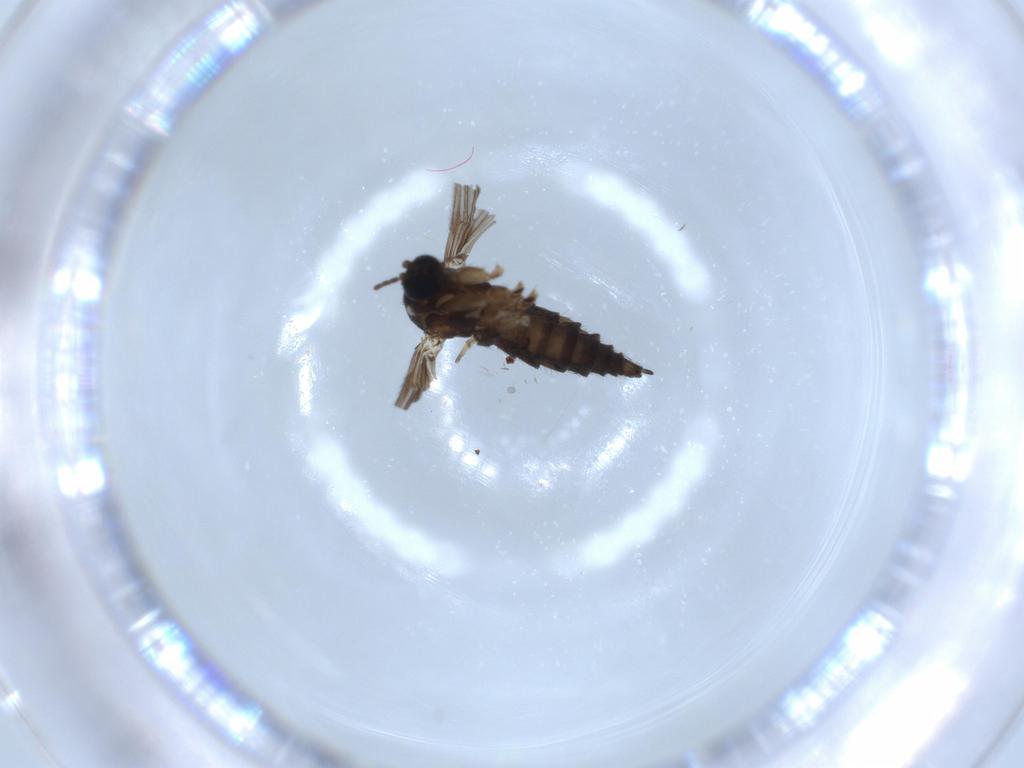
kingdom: Animalia
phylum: Arthropoda
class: Insecta
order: Diptera
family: Sciaridae
